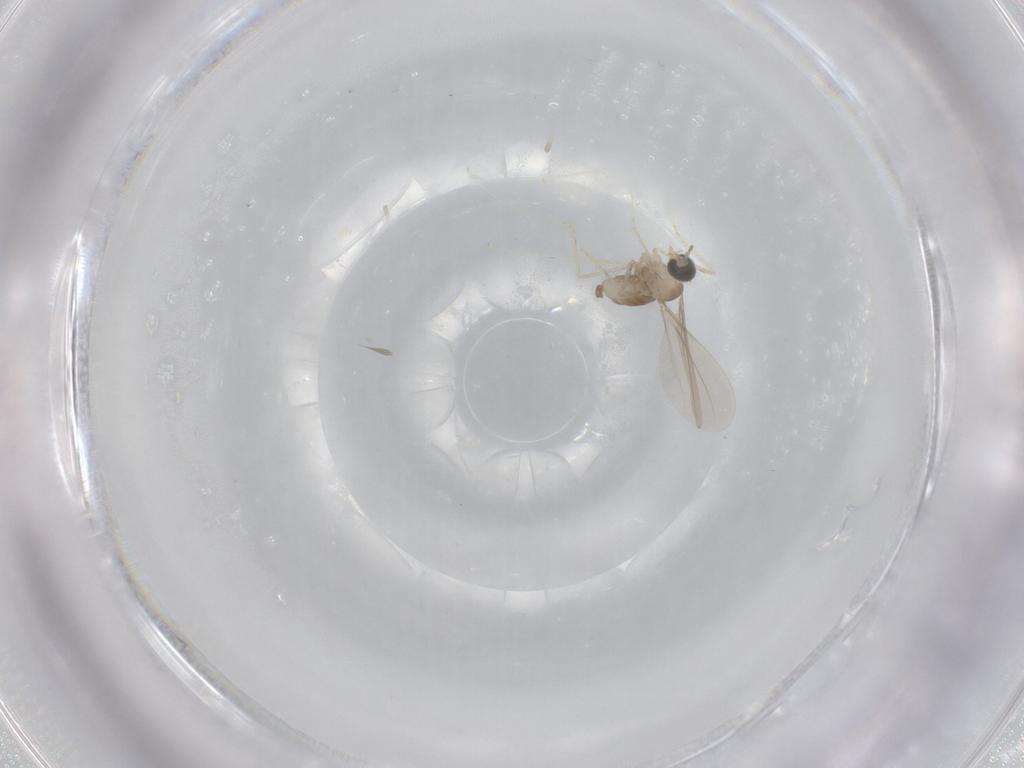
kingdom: Animalia
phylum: Arthropoda
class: Insecta
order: Diptera
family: Cecidomyiidae
